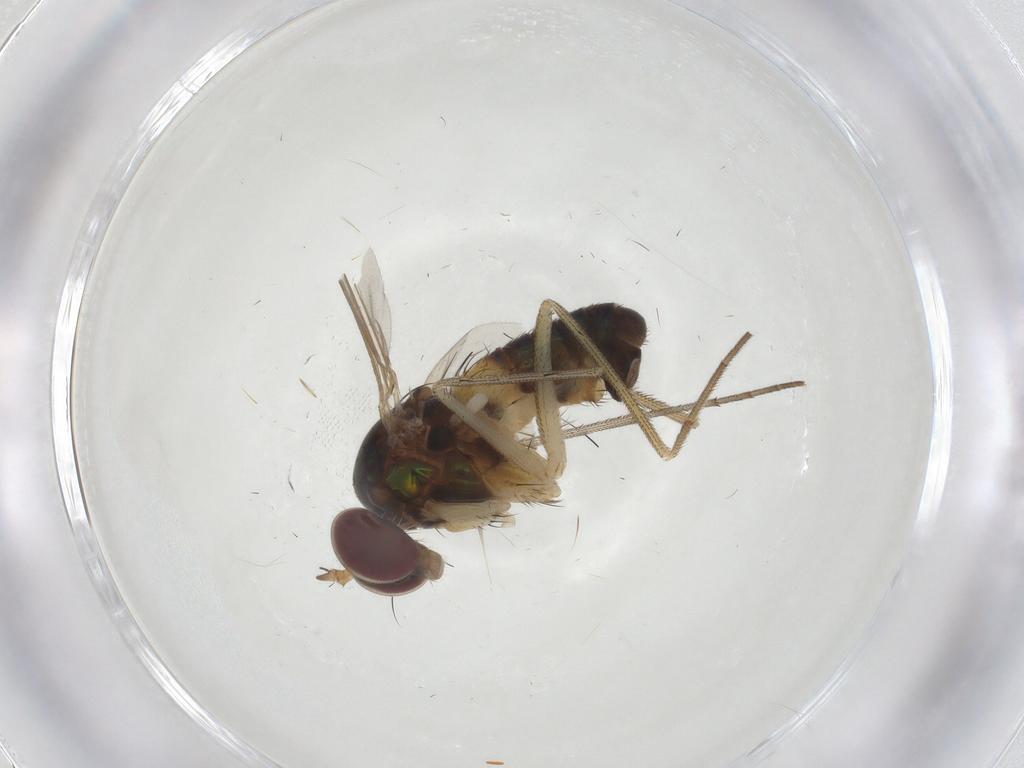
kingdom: Animalia
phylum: Arthropoda
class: Insecta
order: Diptera
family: Dolichopodidae
